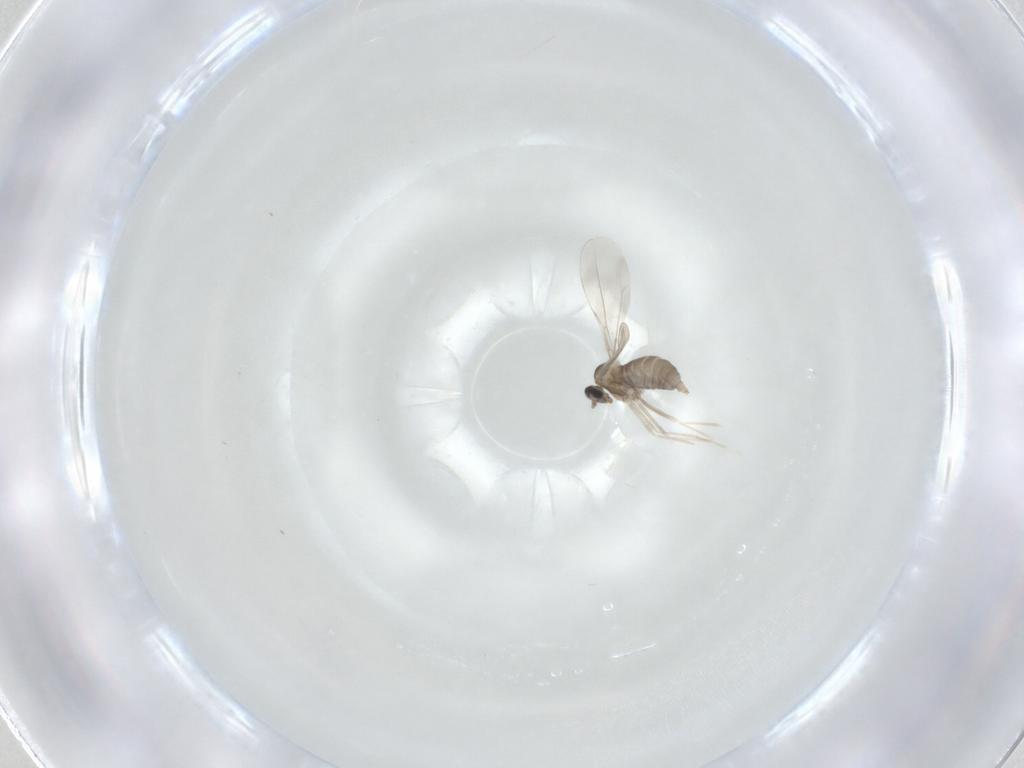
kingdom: Animalia
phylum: Arthropoda
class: Insecta
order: Diptera
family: Cecidomyiidae
